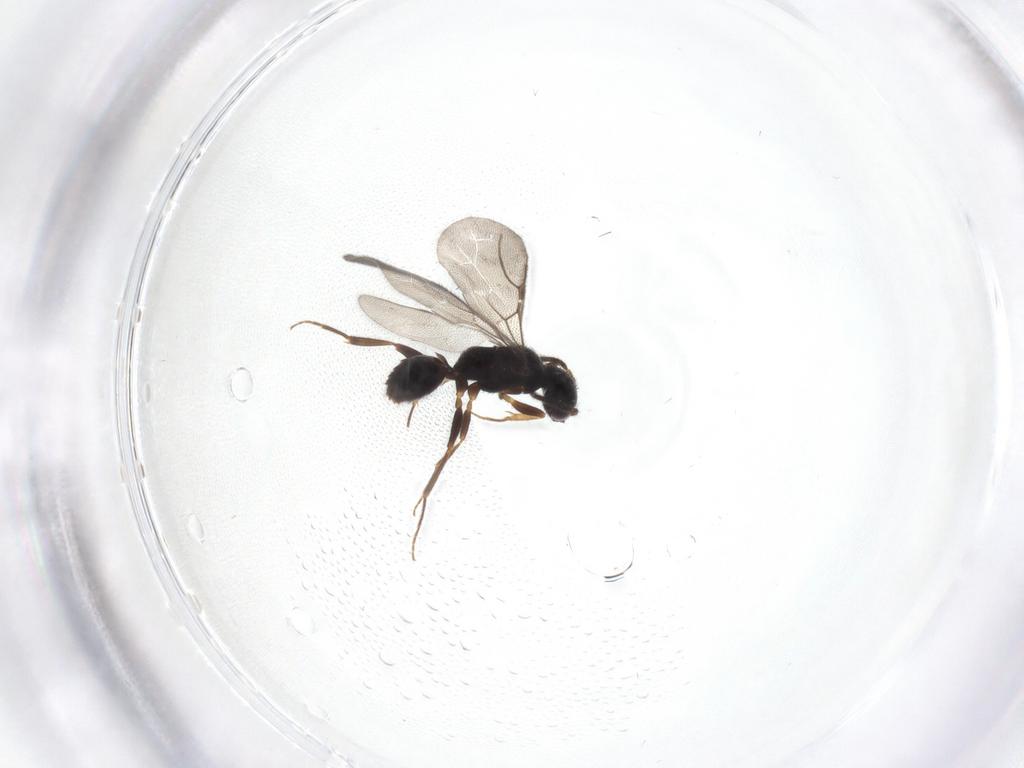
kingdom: Animalia
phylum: Arthropoda
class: Insecta
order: Hymenoptera
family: Bethylidae
